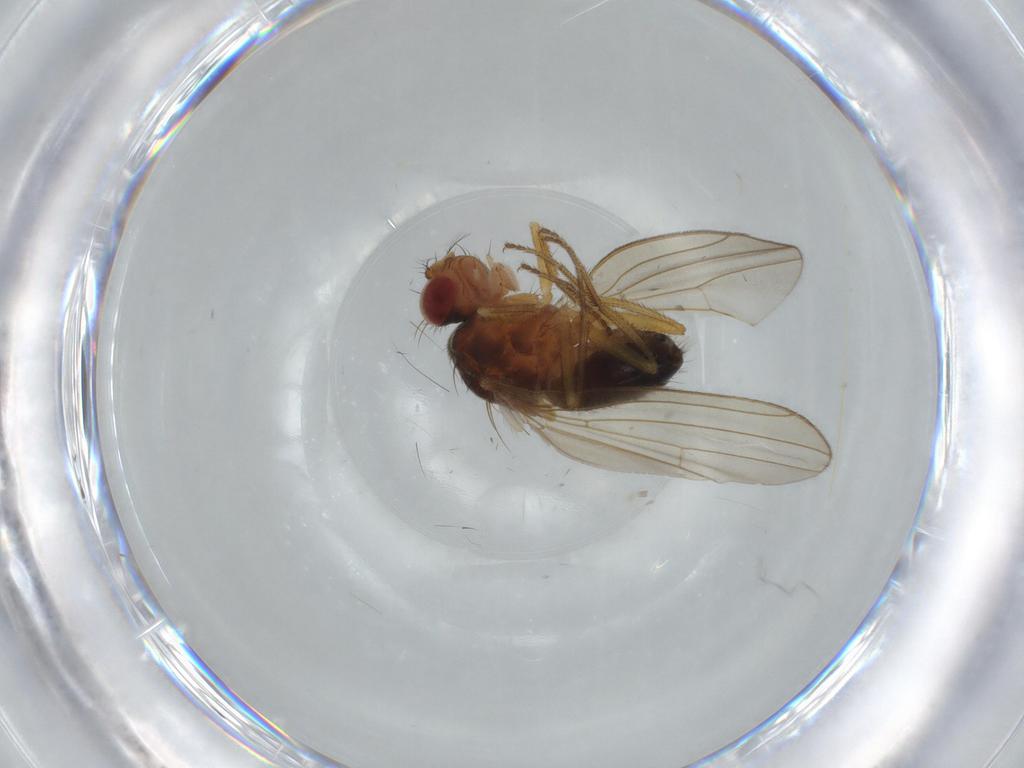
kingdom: Animalia
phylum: Arthropoda
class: Insecta
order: Diptera
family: Drosophilidae
